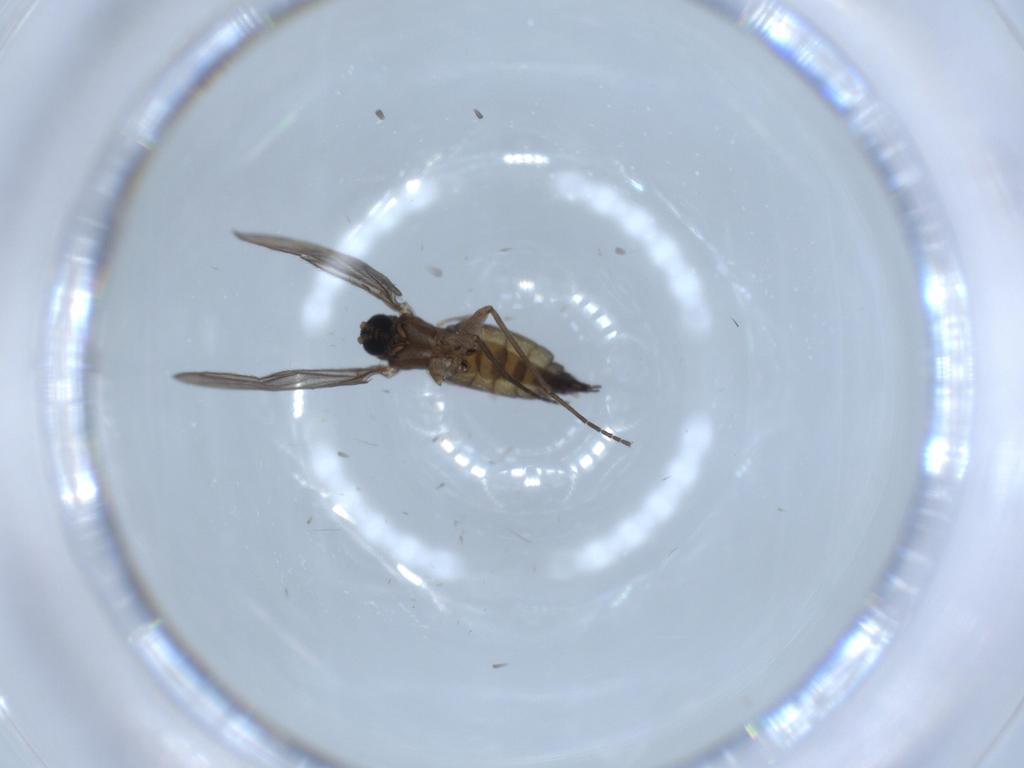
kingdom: Animalia
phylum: Arthropoda
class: Insecta
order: Diptera
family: Sciaridae
